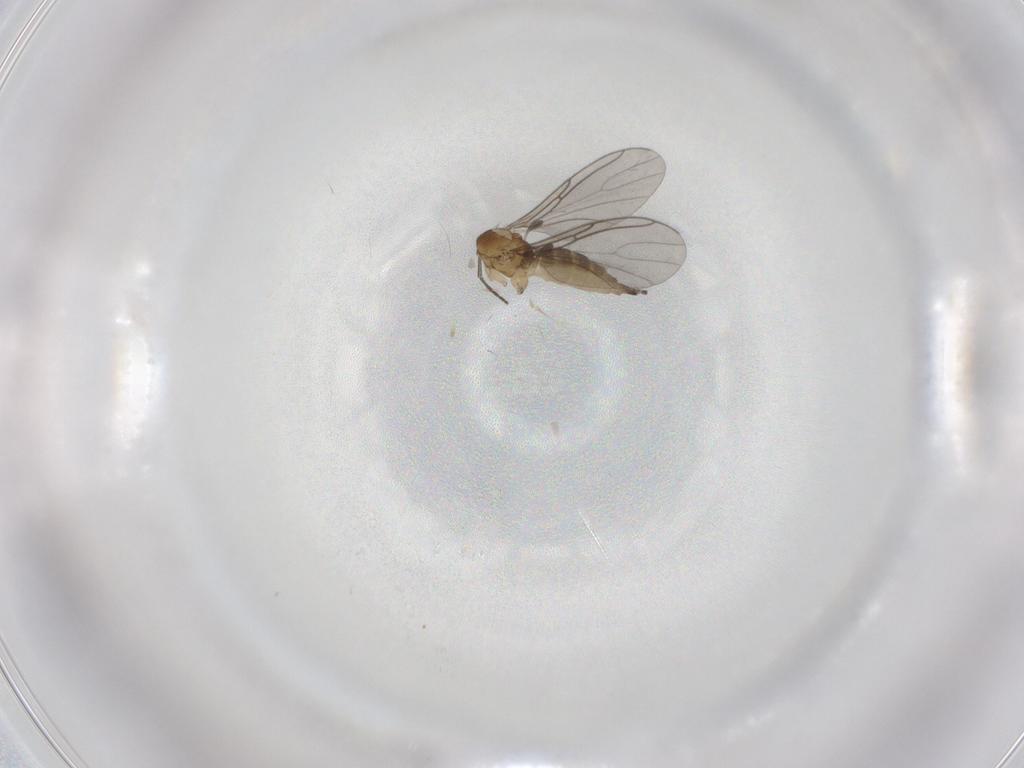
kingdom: Animalia
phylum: Arthropoda
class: Insecta
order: Diptera
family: Sciaridae
